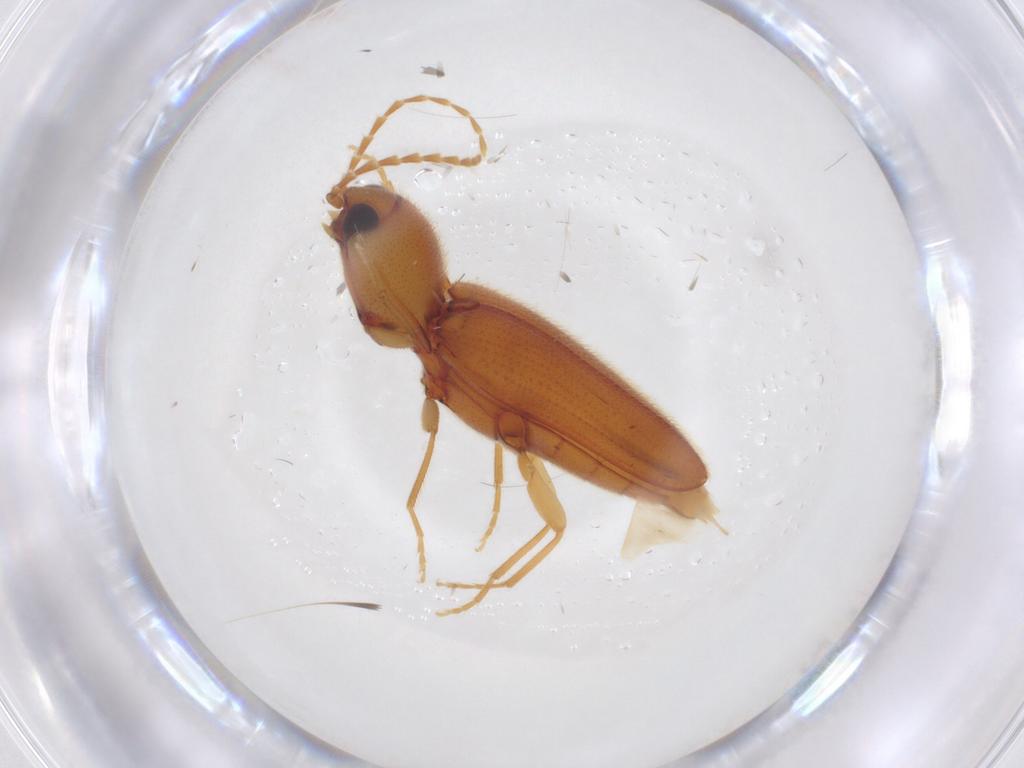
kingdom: Animalia
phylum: Arthropoda
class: Insecta
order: Coleoptera
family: Elateridae
